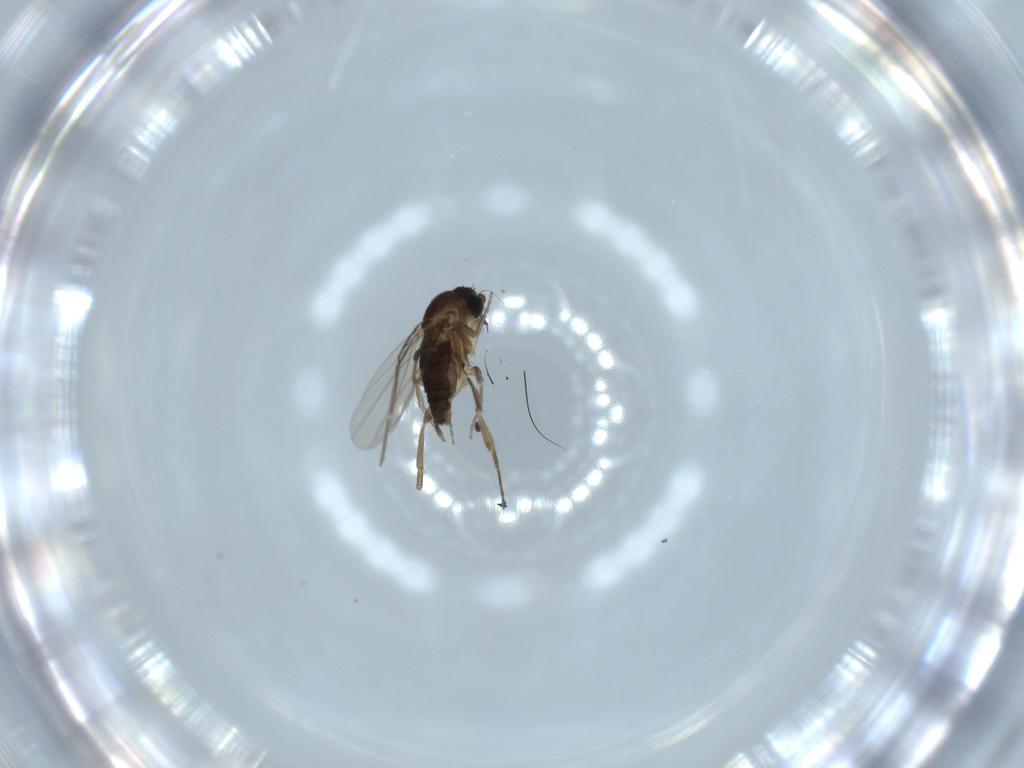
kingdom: Animalia
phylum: Arthropoda
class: Insecta
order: Diptera
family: Phoridae
